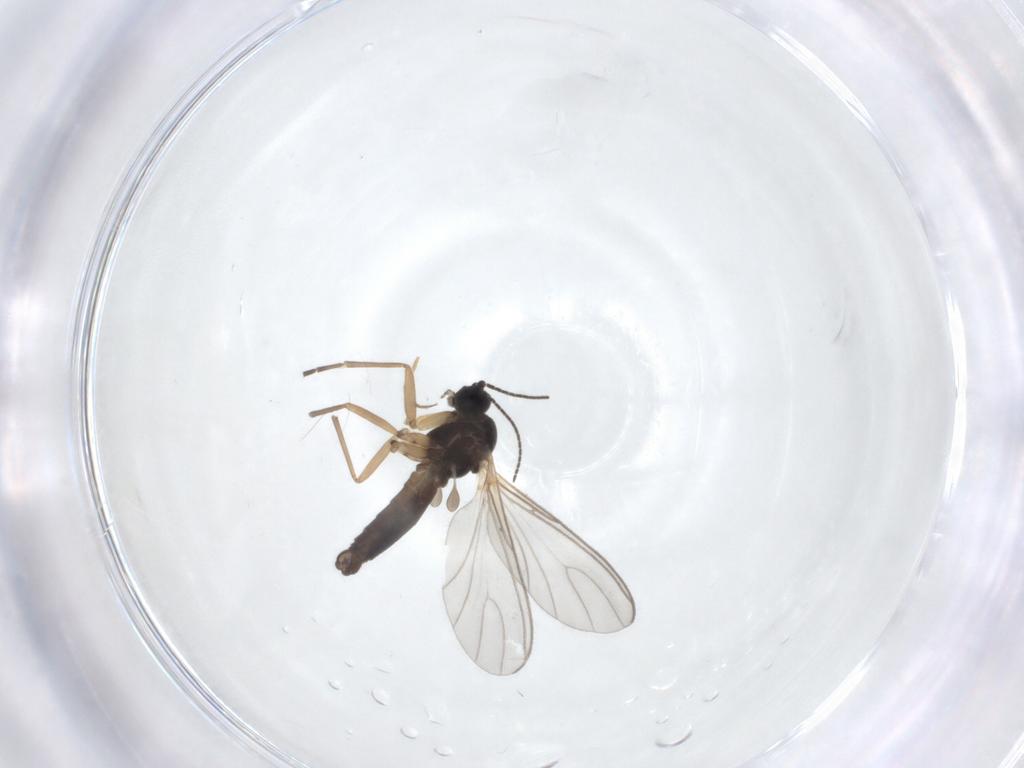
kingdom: Animalia
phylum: Arthropoda
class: Insecta
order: Diptera
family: Chironomidae
